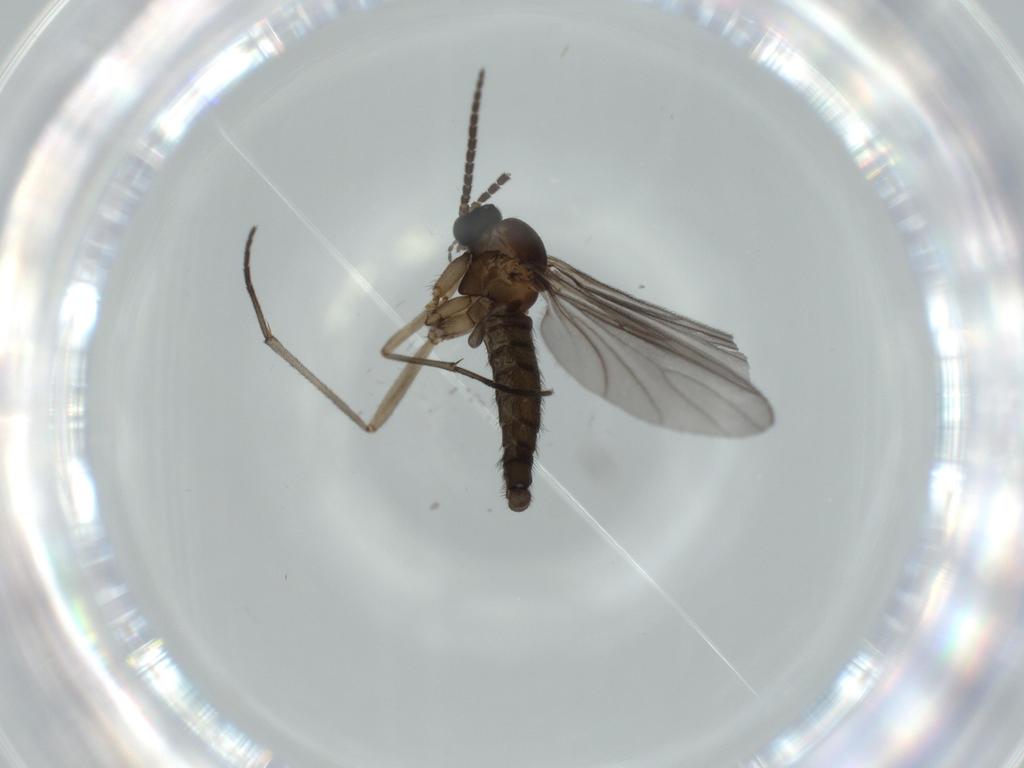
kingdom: Animalia
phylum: Arthropoda
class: Insecta
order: Diptera
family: Sciaridae
